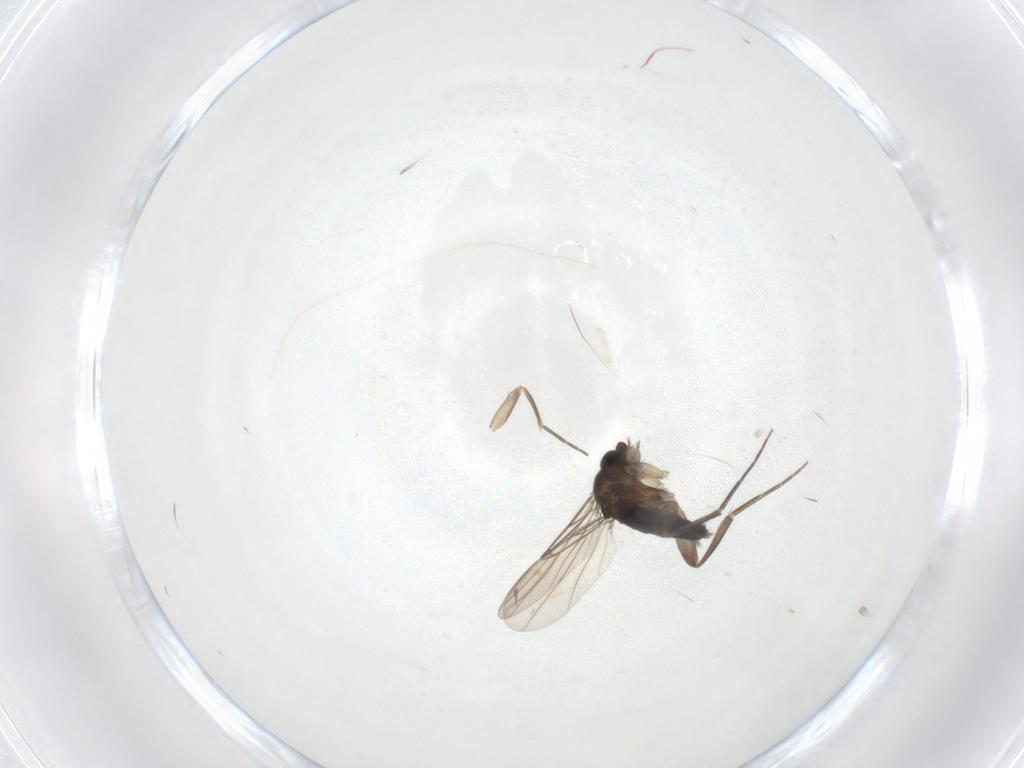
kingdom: Animalia
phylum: Arthropoda
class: Insecta
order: Diptera
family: Phoridae
